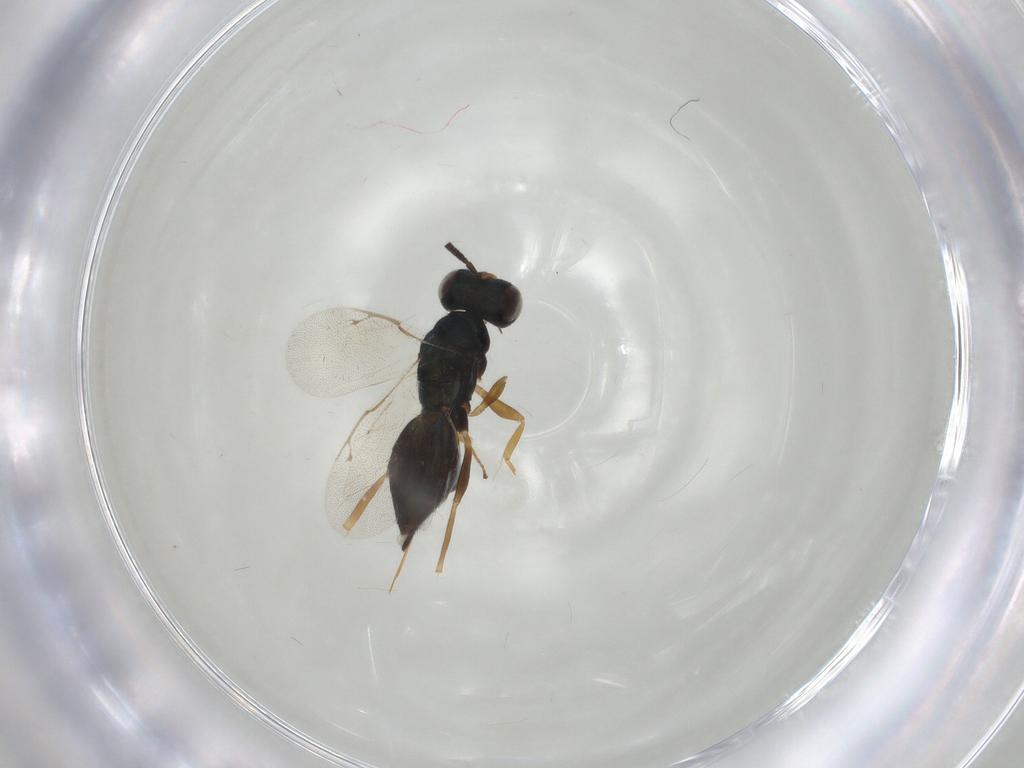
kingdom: Animalia
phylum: Arthropoda
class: Insecta
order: Hymenoptera
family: Pteromalidae
